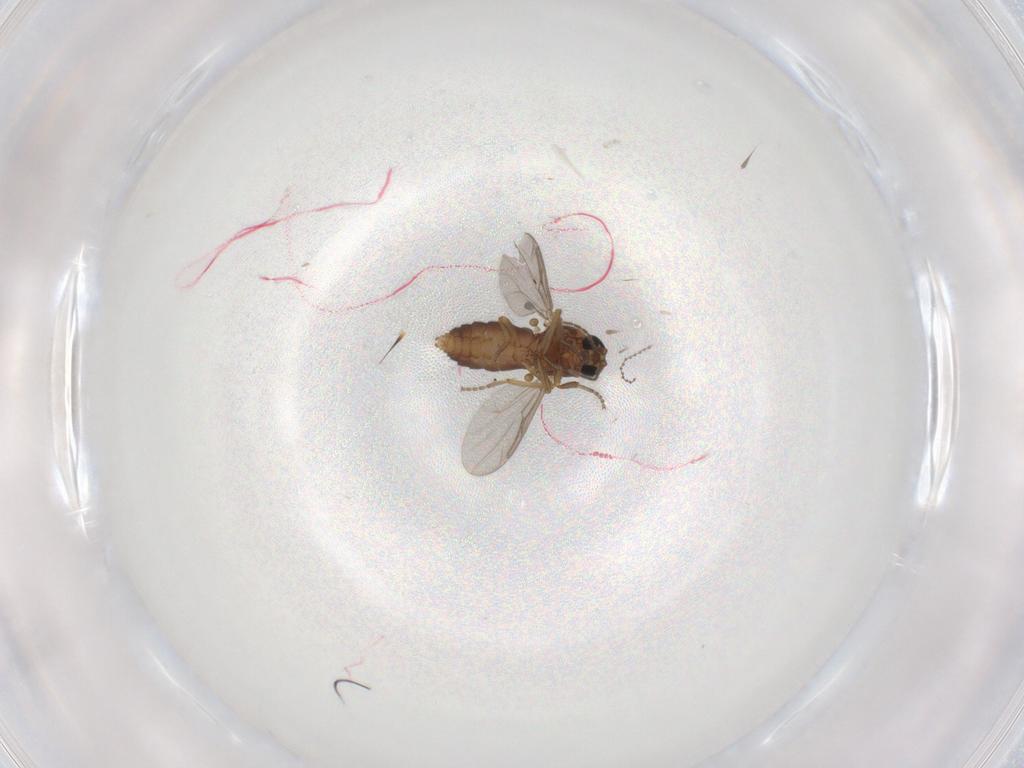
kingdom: Animalia
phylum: Arthropoda
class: Insecta
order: Diptera
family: Ceratopogonidae
